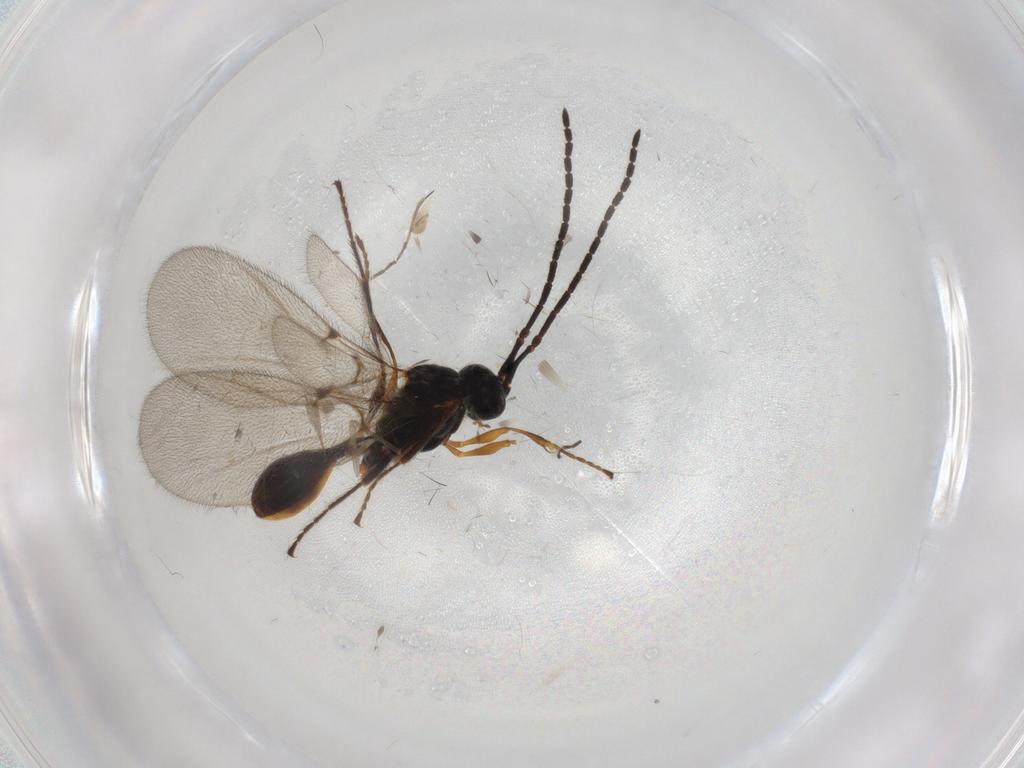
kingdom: Animalia
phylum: Arthropoda
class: Insecta
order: Hymenoptera
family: Diapriidae
